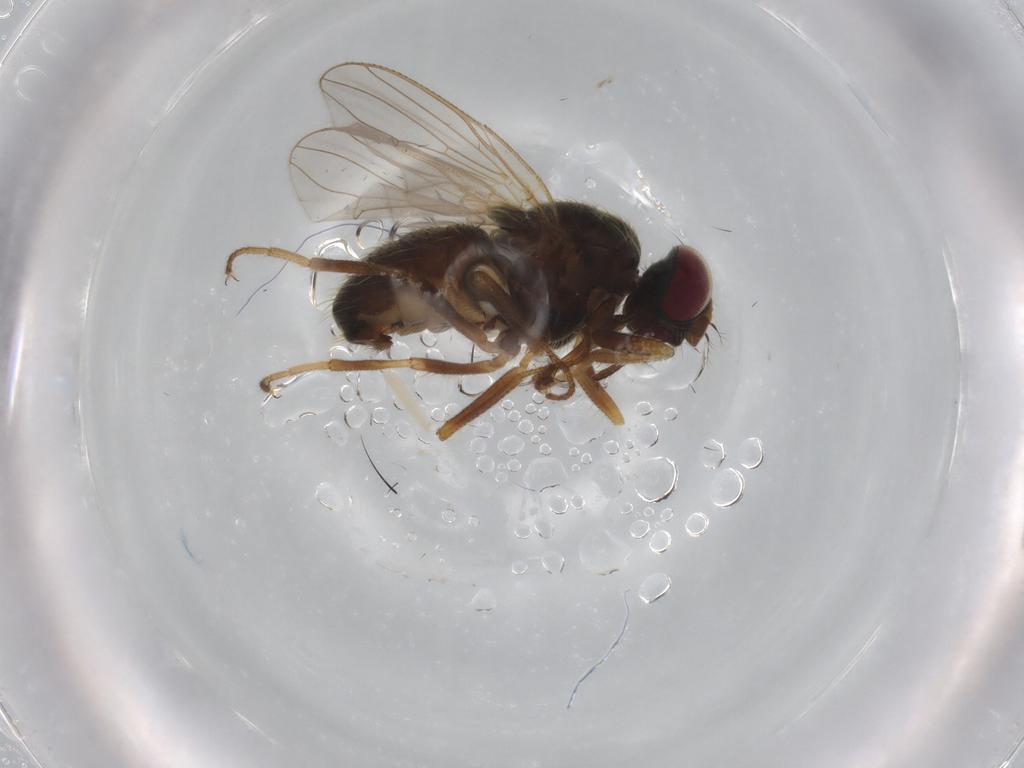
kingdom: Animalia
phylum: Arthropoda
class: Insecta
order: Diptera
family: Muscidae
